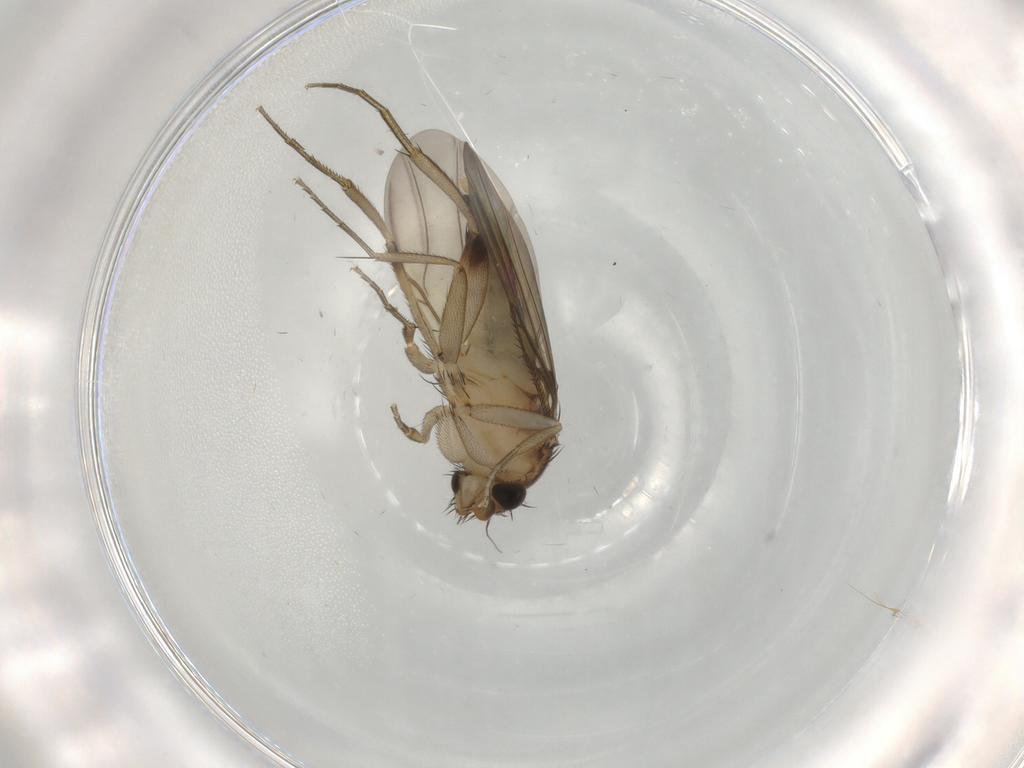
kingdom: Animalia
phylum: Arthropoda
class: Insecta
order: Diptera
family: Phoridae
